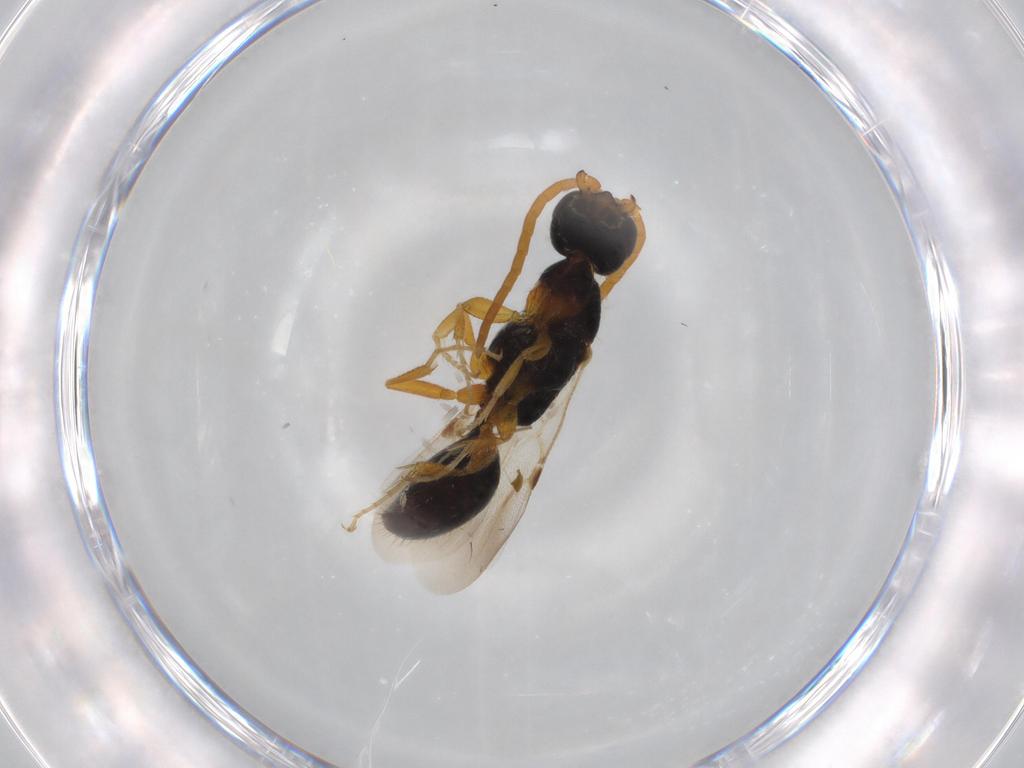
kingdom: Animalia
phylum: Arthropoda
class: Insecta
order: Hymenoptera
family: Bethylidae
